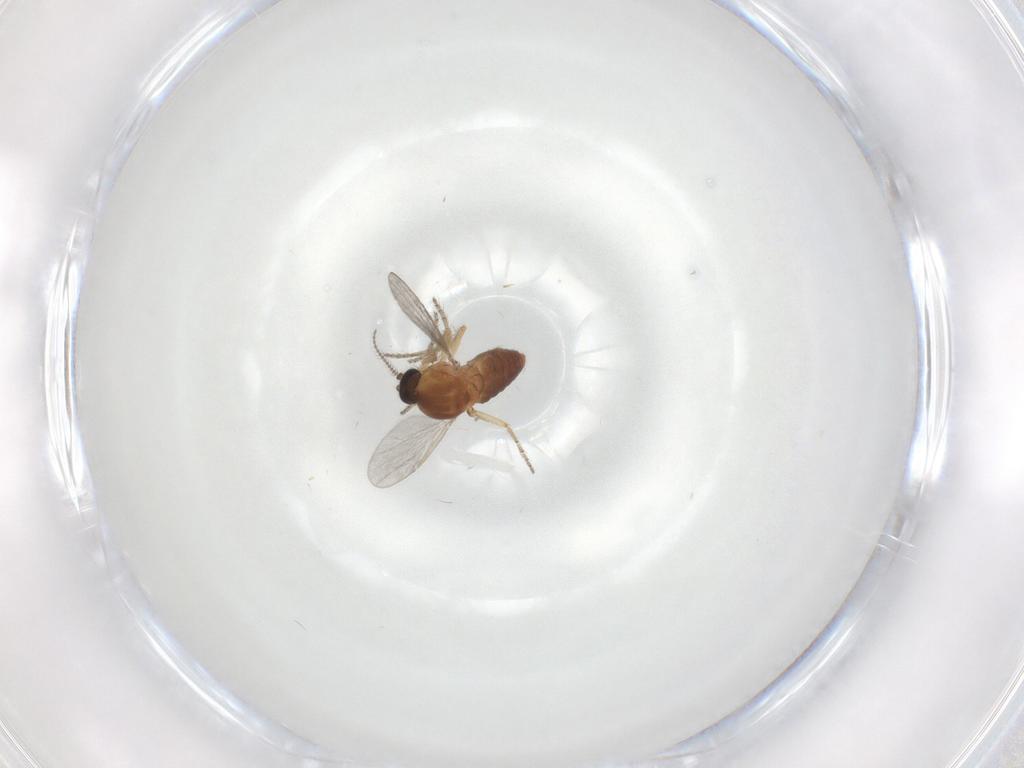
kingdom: Animalia
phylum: Arthropoda
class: Insecta
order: Diptera
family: Ceratopogonidae
